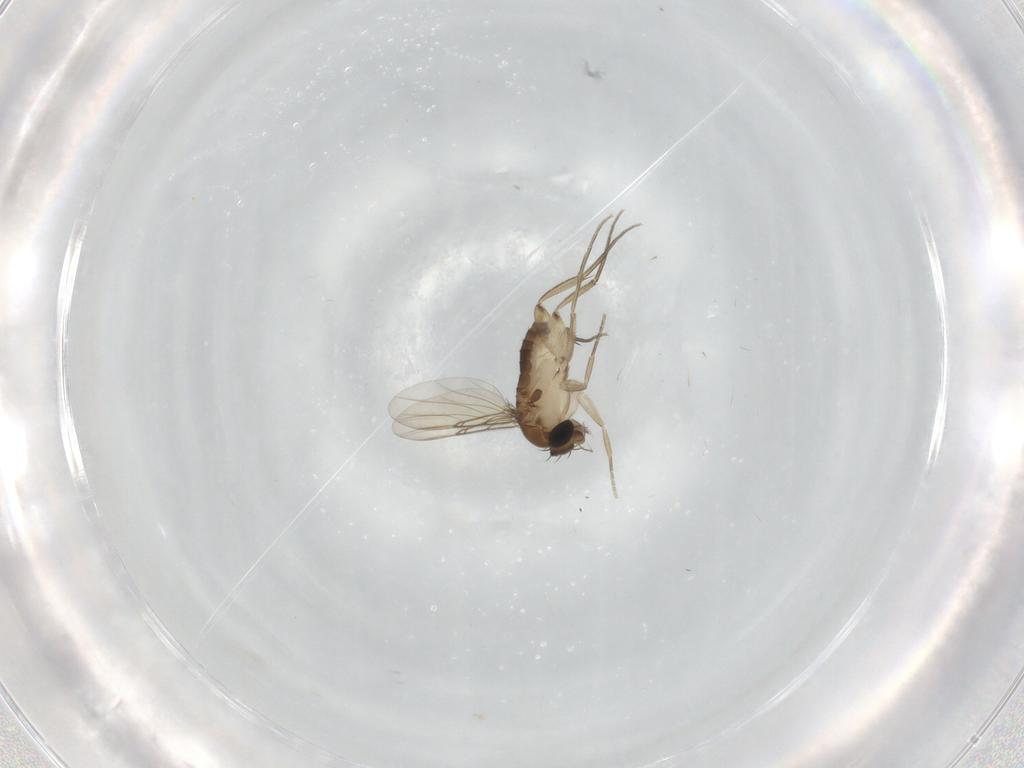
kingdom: Animalia
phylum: Arthropoda
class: Insecta
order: Diptera
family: Phoridae
